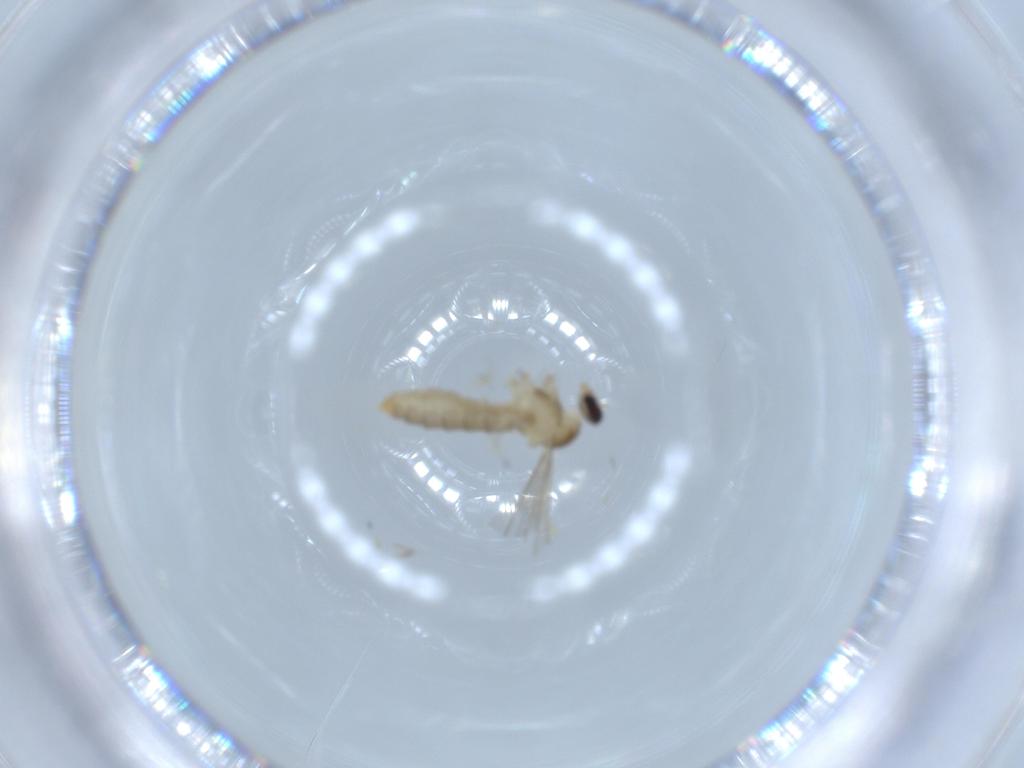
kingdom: Animalia
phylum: Arthropoda
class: Insecta
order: Diptera
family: Cecidomyiidae
